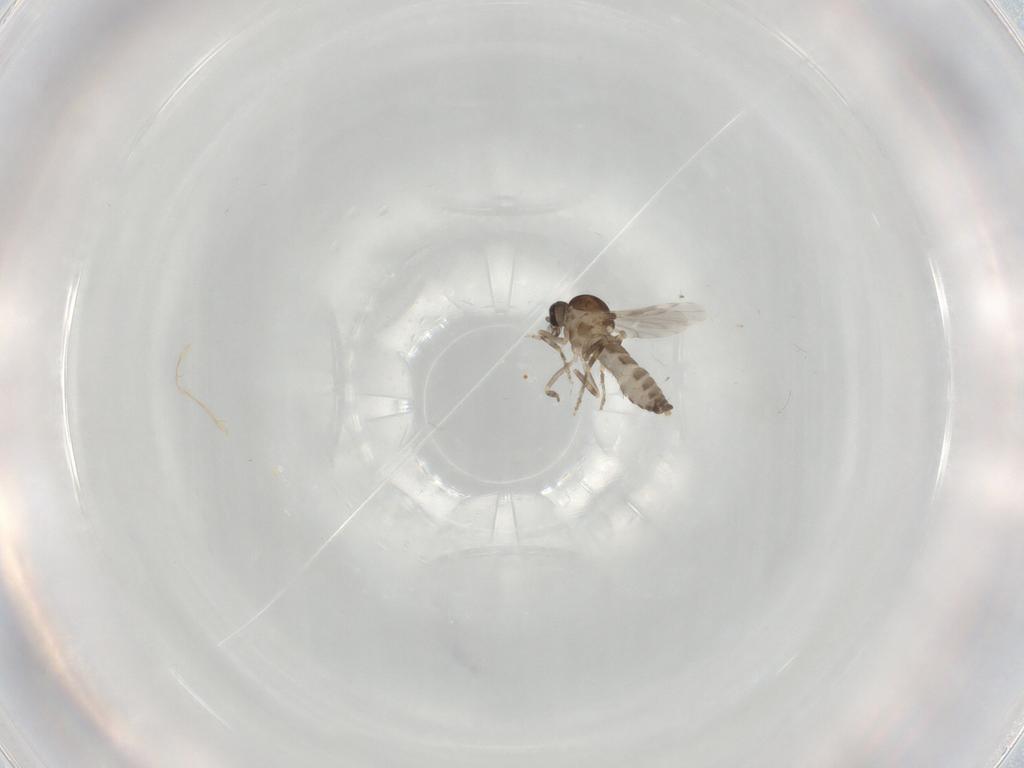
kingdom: Animalia
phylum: Arthropoda
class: Insecta
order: Diptera
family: Ceratopogonidae
